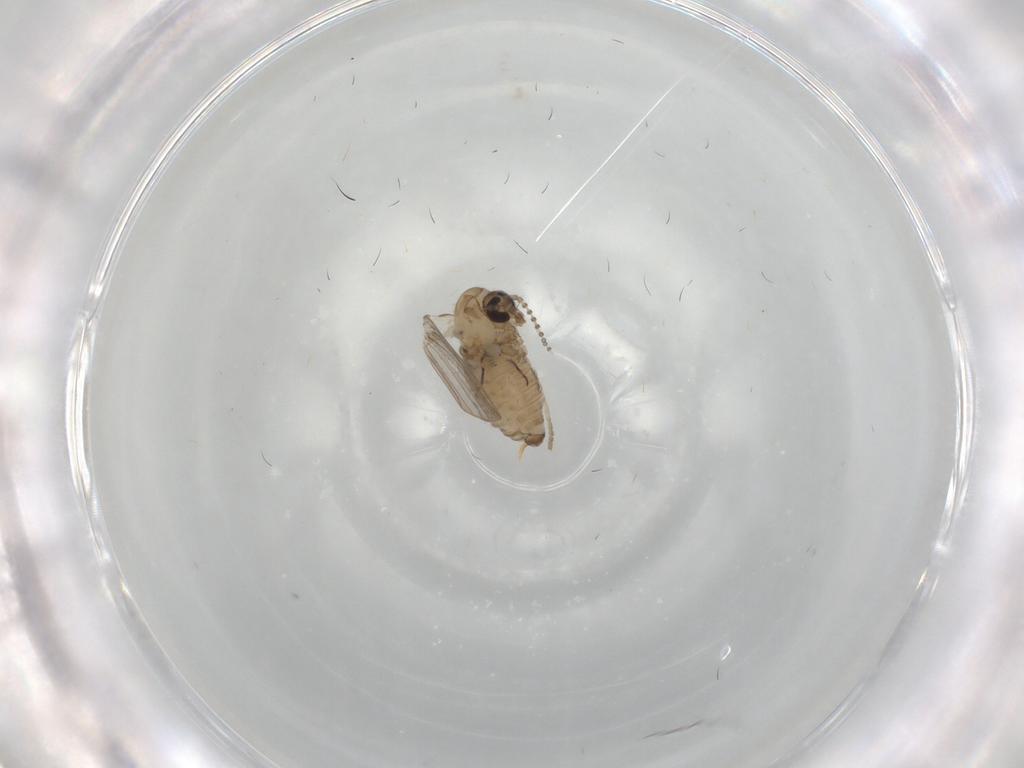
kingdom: Animalia
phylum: Arthropoda
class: Insecta
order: Diptera
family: Psychodidae
